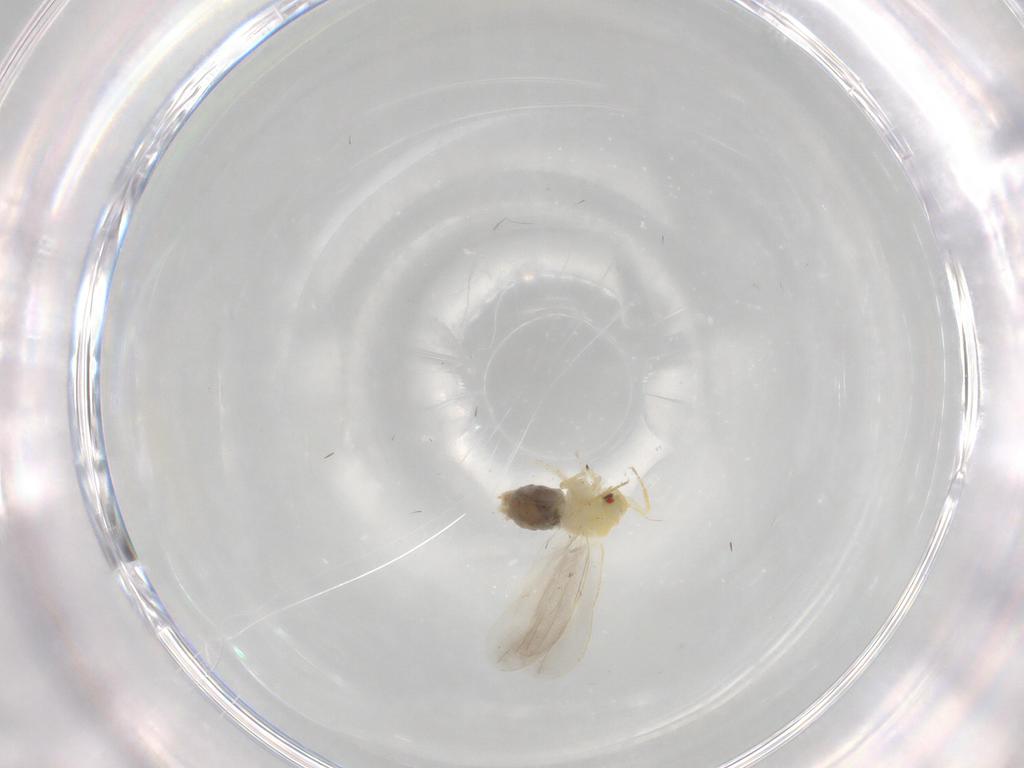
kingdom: Animalia
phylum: Arthropoda
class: Insecta
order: Hemiptera
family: Aleyrodidae
